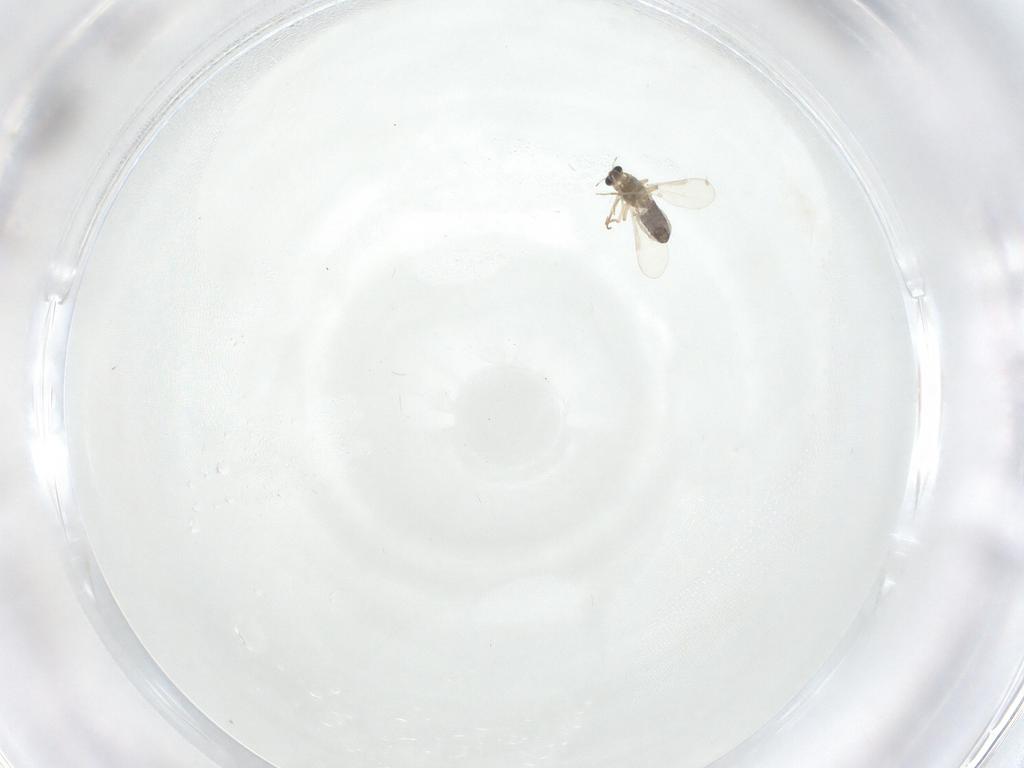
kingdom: Animalia
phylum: Arthropoda
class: Insecta
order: Diptera
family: Chironomidae
